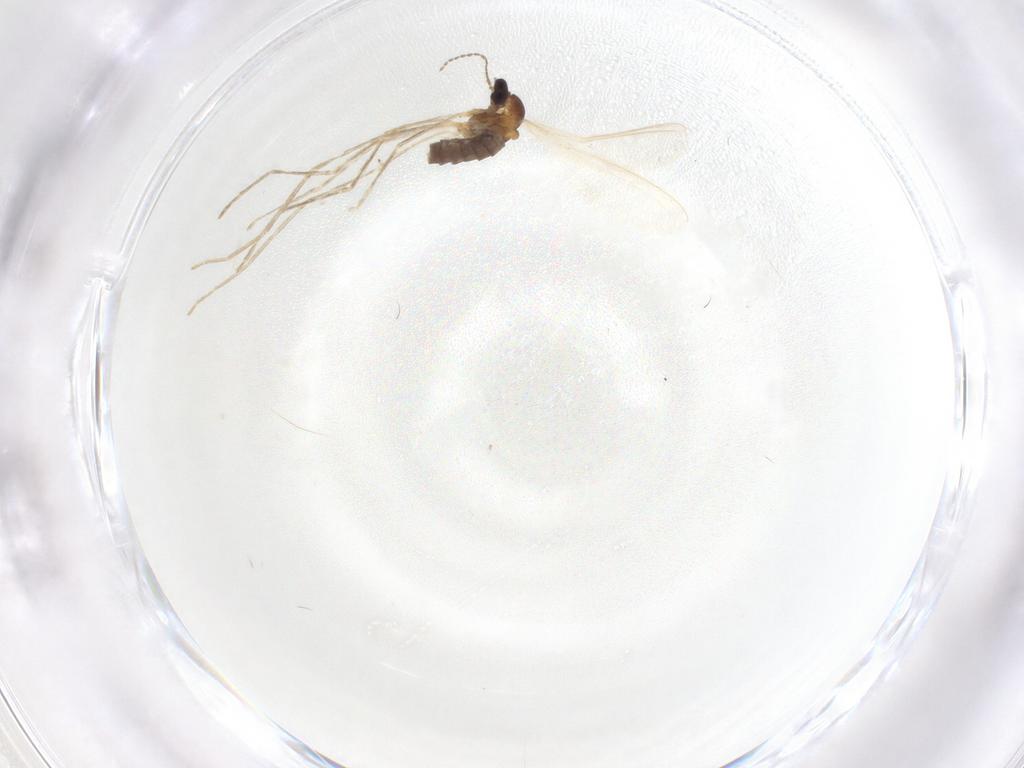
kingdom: Animalia
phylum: Arthropoda
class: Insecta
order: Diptera
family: Cecidomyiidae
